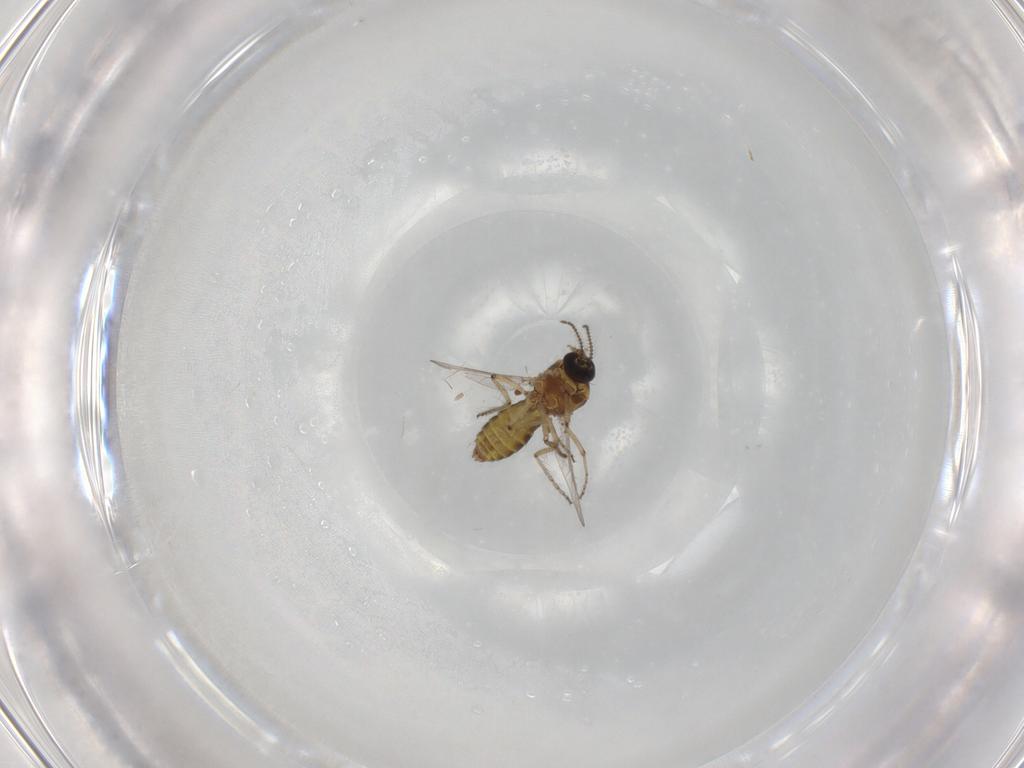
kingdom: Animalia
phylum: Arthropoda
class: Insecta
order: Diptera
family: Ceratopogonidae
